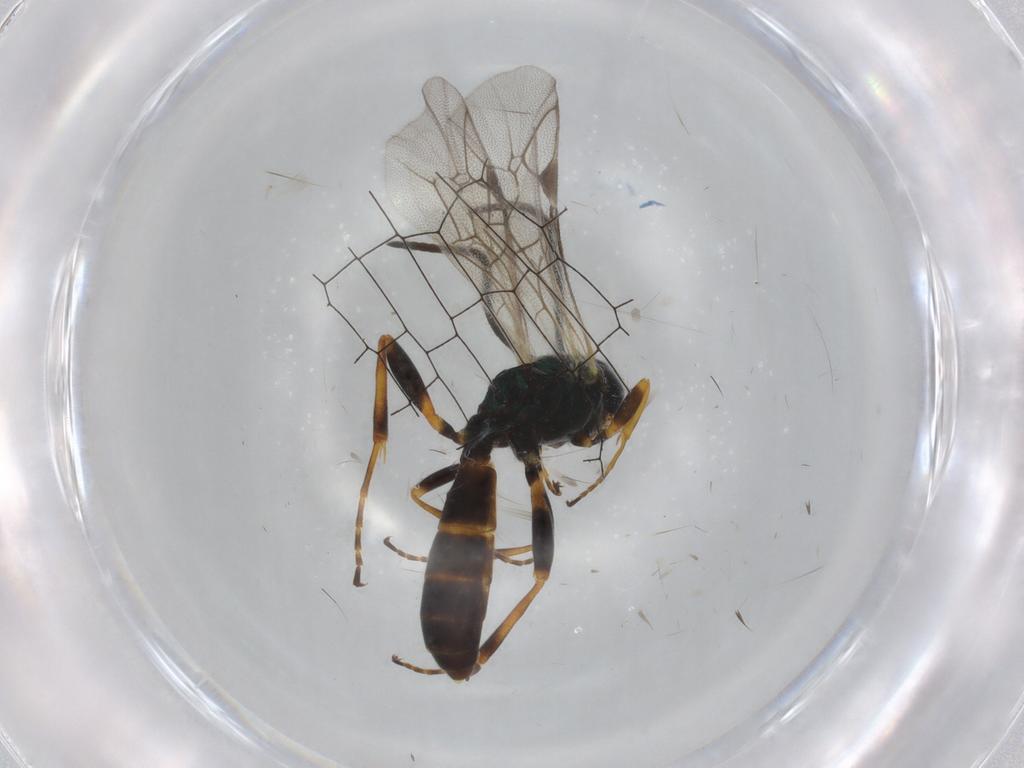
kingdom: Animalia
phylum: Arthropoda
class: Insecta
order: Hymenoptera
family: Ichneumonidae
